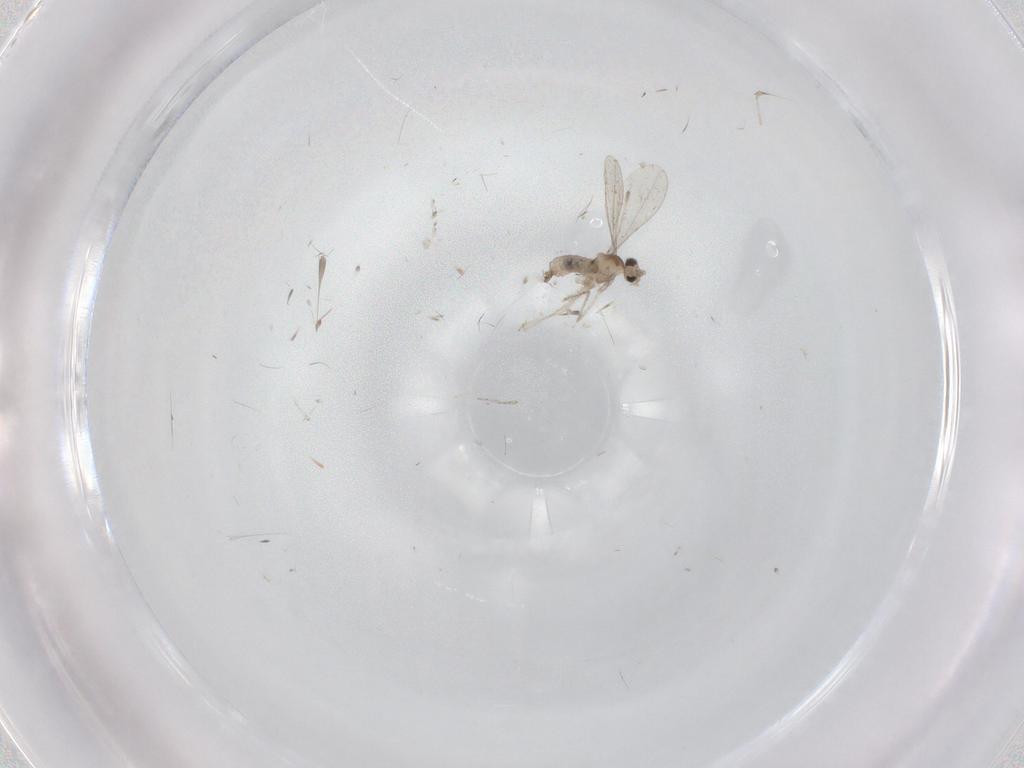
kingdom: Animalia
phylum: Arthropoda
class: Insecta
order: Diptera
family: Cecidomyiidae
